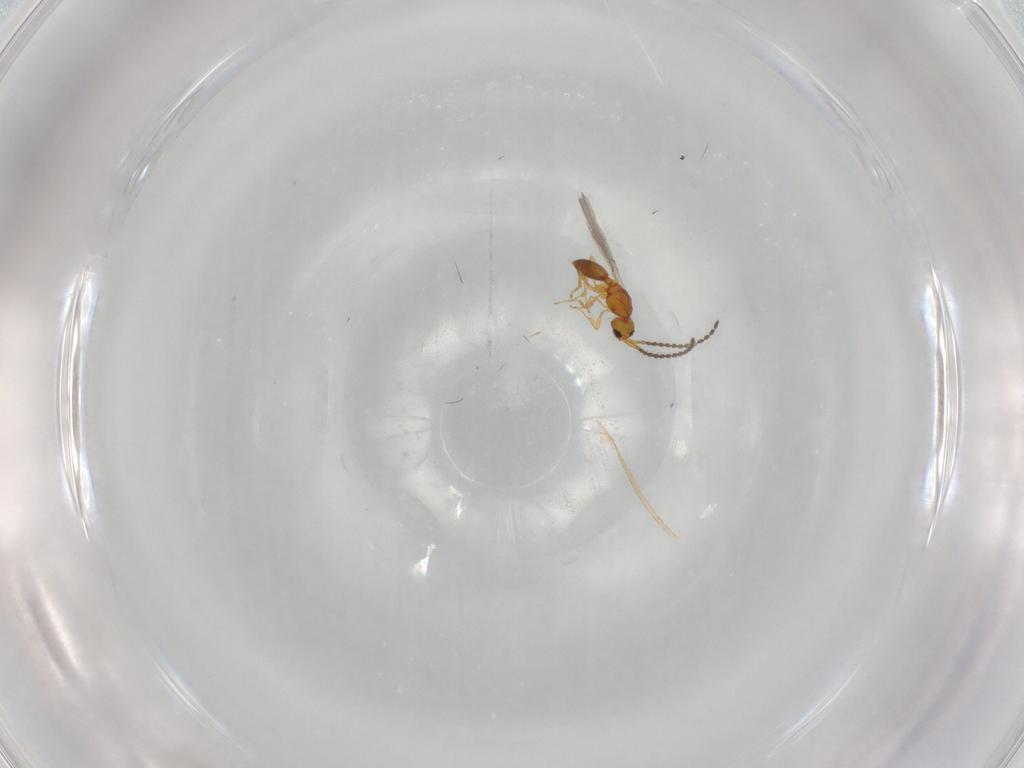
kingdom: Animalia
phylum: Arthropoda
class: Insecta
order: Hymenoptera
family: Diapriidae
